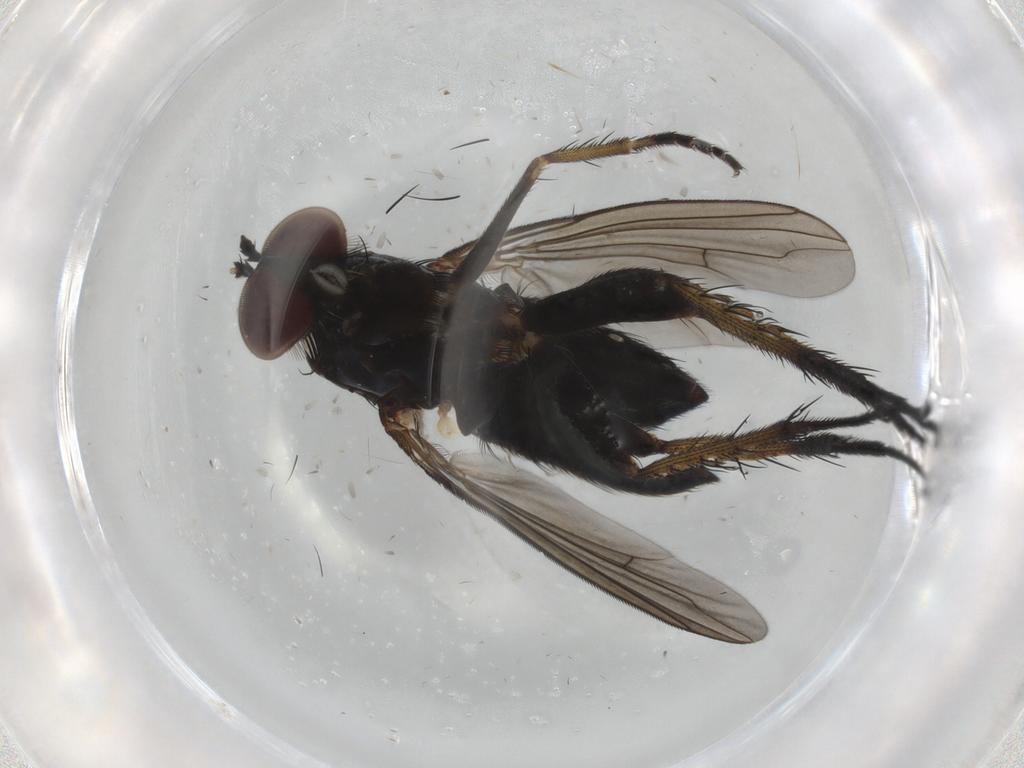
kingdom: Animalia
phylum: Arthropoda
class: Insecta
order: Diptera
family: Dolichopodidae
